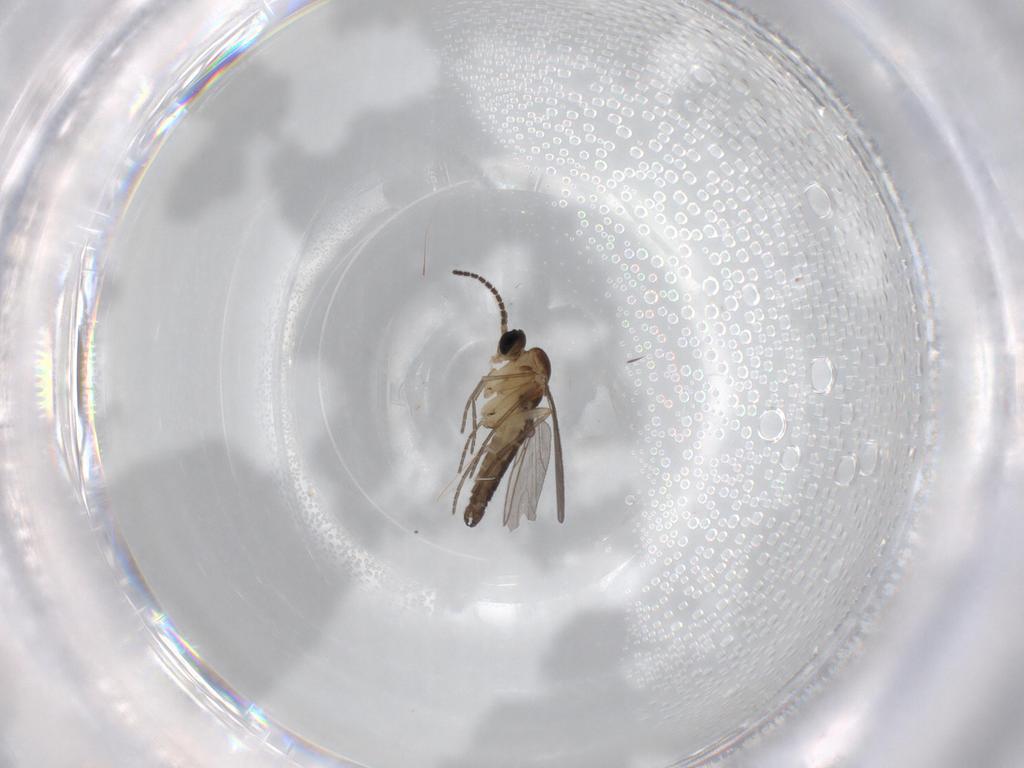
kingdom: Animalia
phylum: Arthropoda
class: Insecta
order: Diptera
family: Sciaridae
